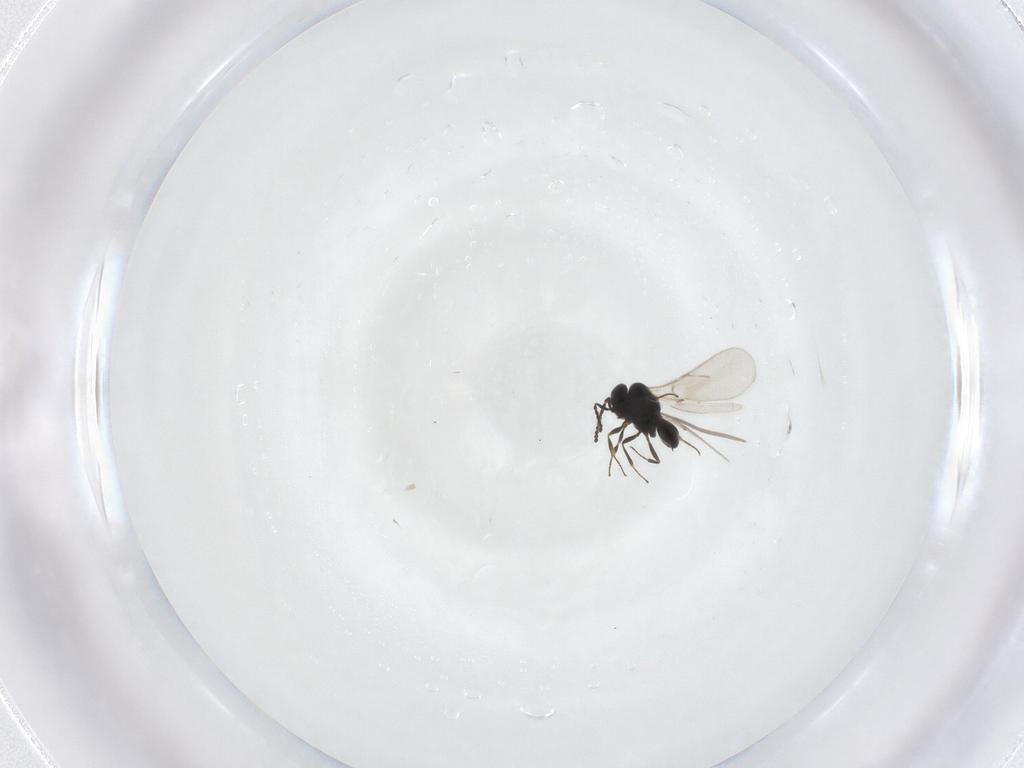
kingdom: Animalia
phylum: Arthropoda
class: Insecta
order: Hymenoptera
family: Scelionidae
